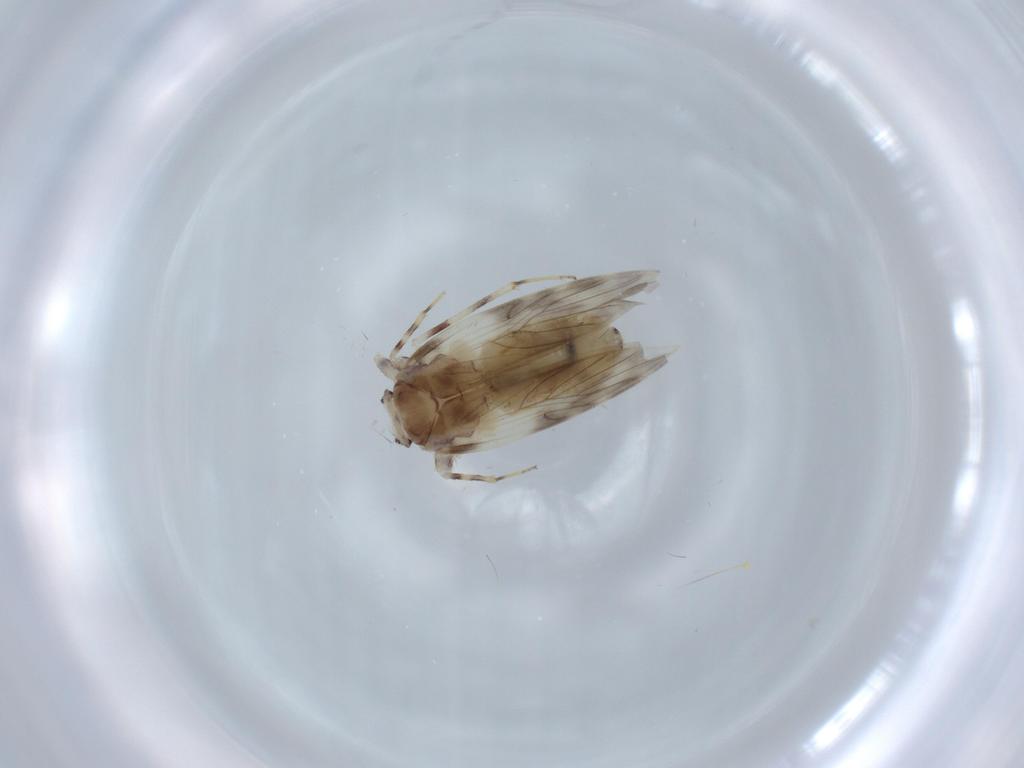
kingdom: Animalia
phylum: Arthropoda
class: Insecta
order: Psocodea
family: Lepidopsocidae
